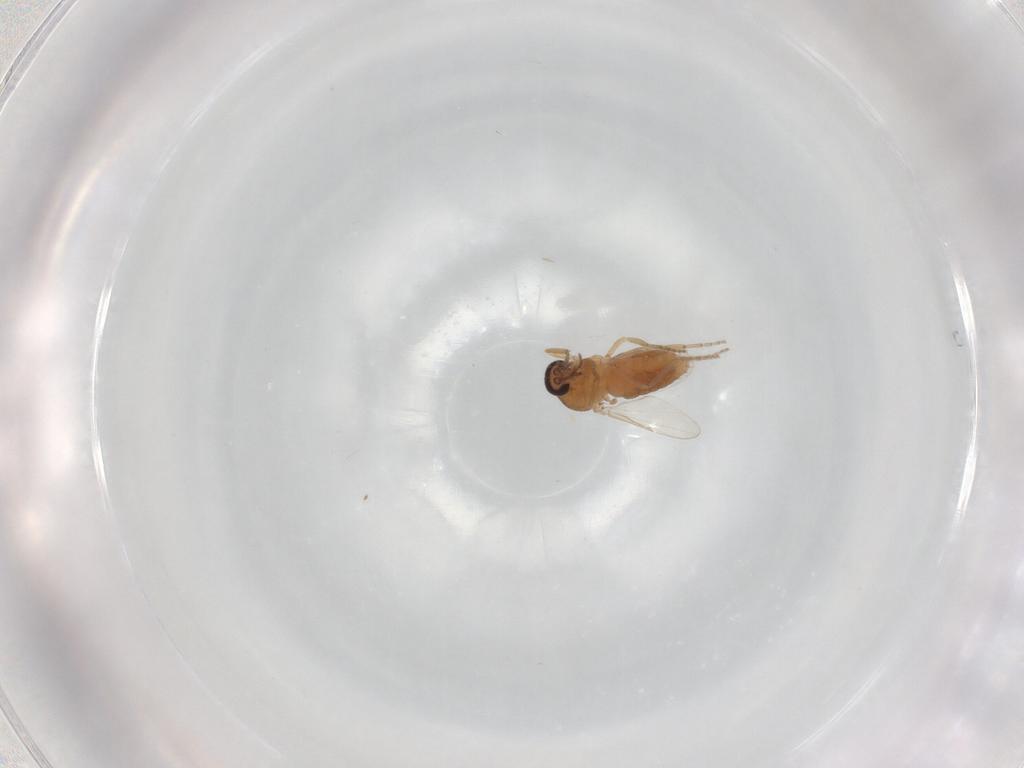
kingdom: Animalia
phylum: Arthropoda
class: Insecta
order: Diptera
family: Ceratopogonidae
